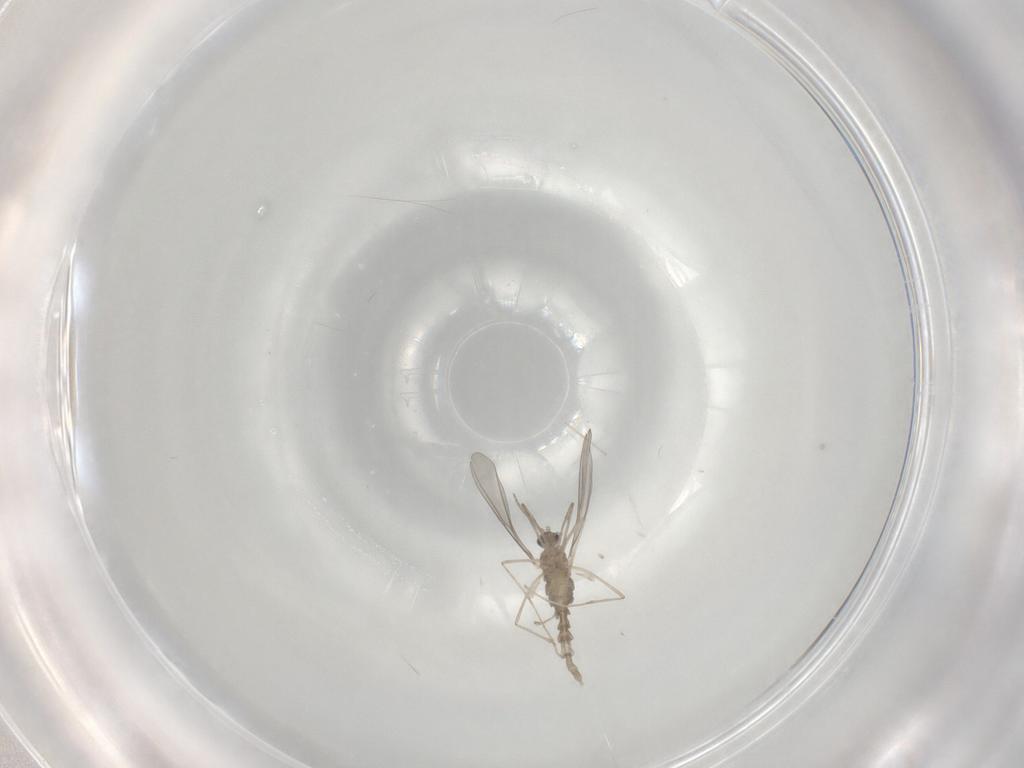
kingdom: Animalia
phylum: Arthropoda
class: Insecta
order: Diptera
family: Cecidomyiidae
